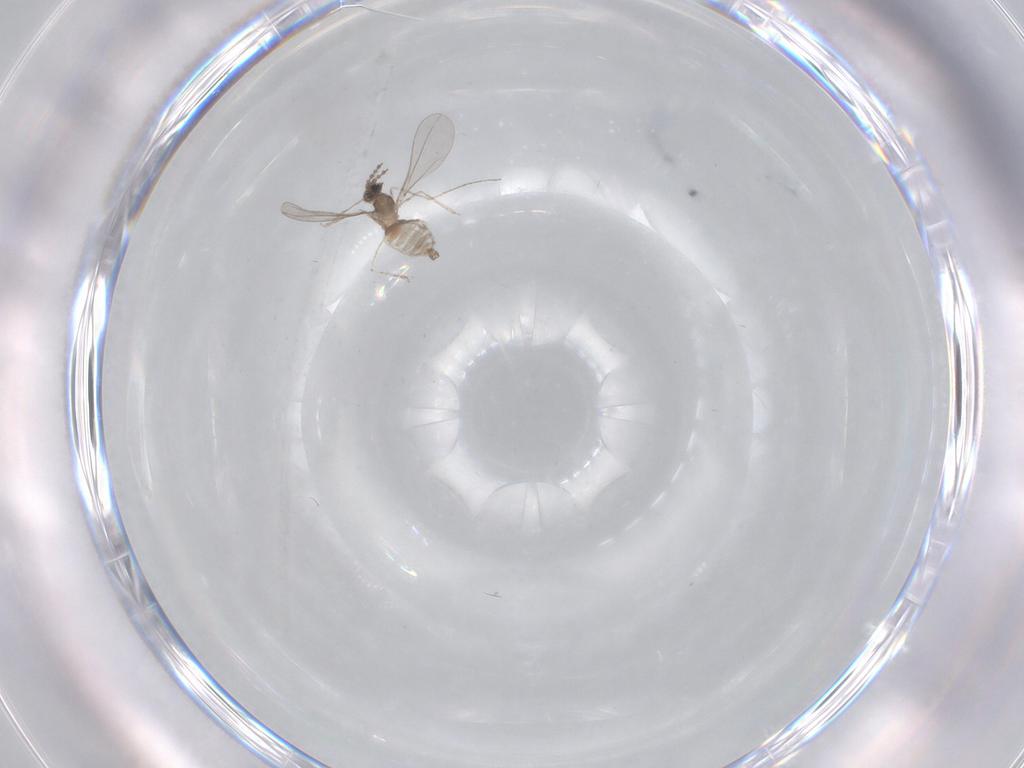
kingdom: Animalia
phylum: Arthropoda
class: Insecta
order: Diptera
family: Cecidomyiidae
